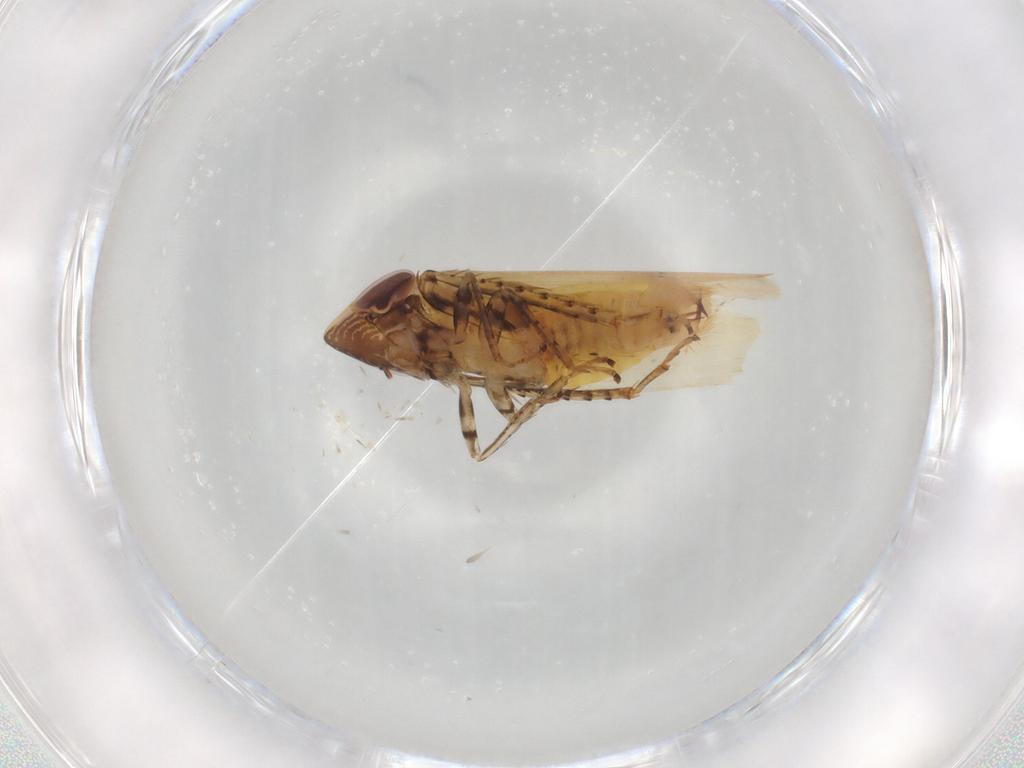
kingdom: Animalia
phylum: Arthropoda
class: Insecta
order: Hemiptera
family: Cicadellidae
